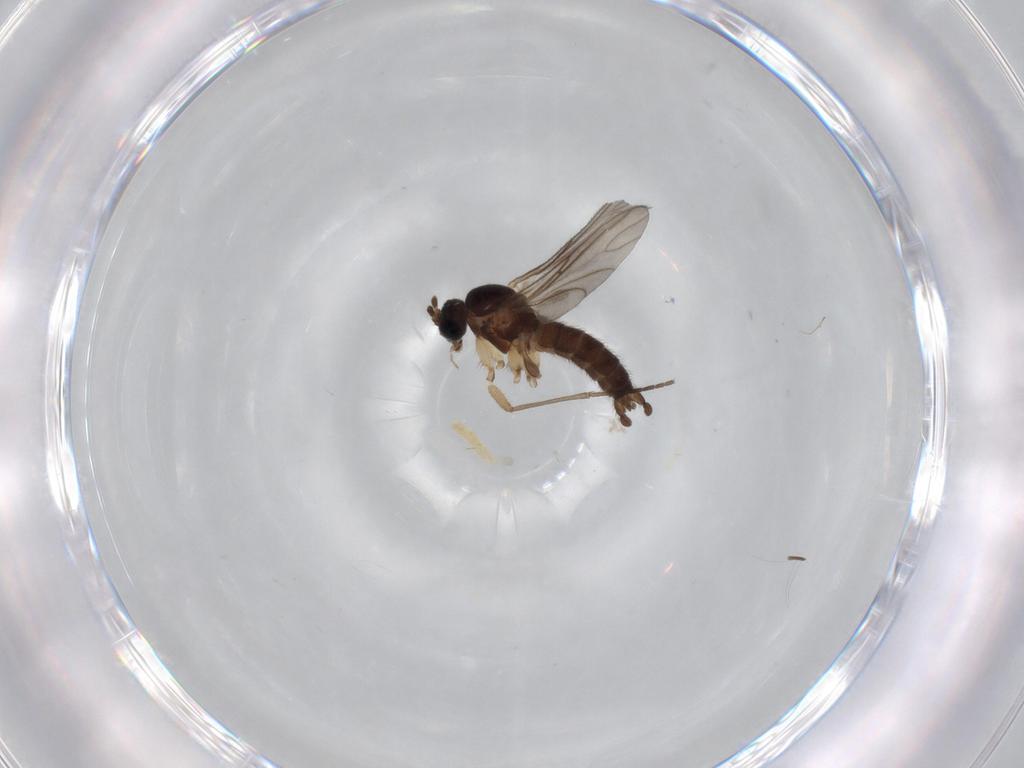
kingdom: Animalia
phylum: Arthropoda
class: Insecta
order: Diptera
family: Sciaridae
